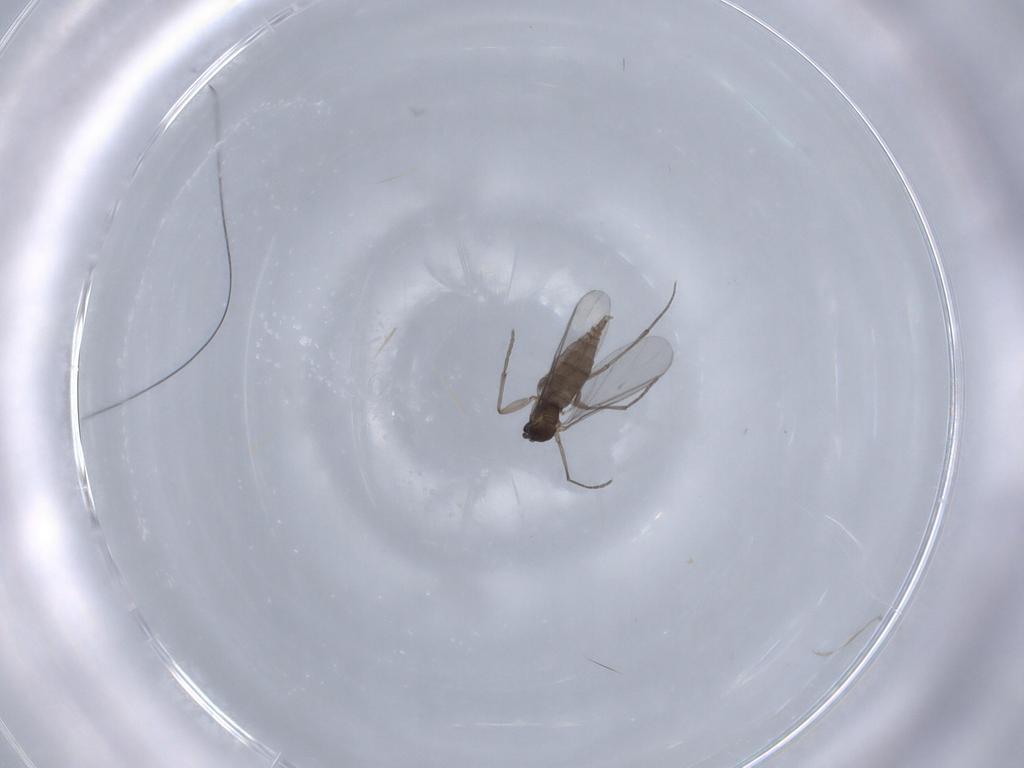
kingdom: Animalia
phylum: Arthropoda
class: Insecta
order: Diptera
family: Sciaridae
